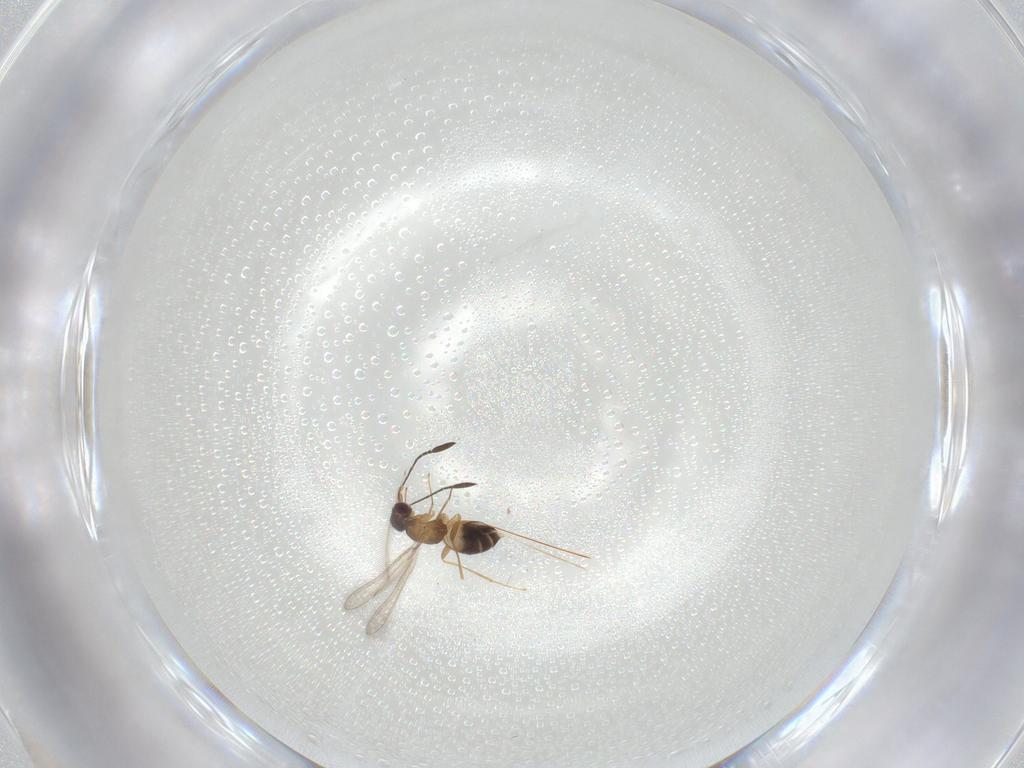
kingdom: Animalia
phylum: Arthropoda
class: Insecta
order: Hymenoptera
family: Mymaridae
